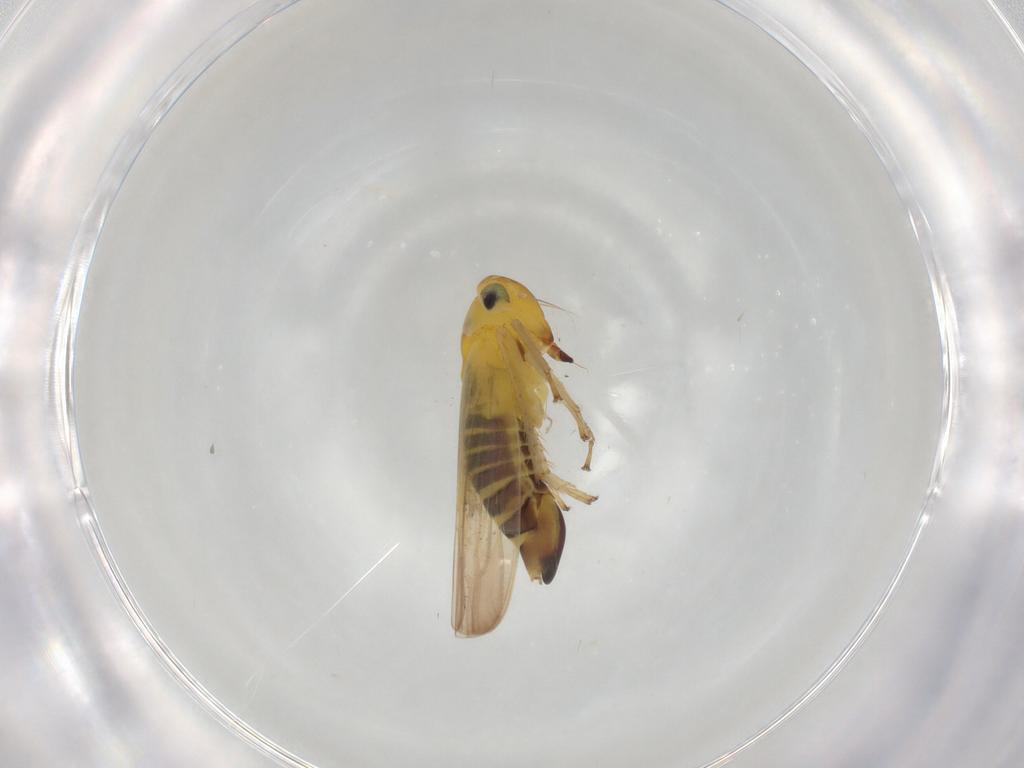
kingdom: Animalia
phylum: Arthropoda
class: Insecta
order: Hemiptera
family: Cicadellidae
